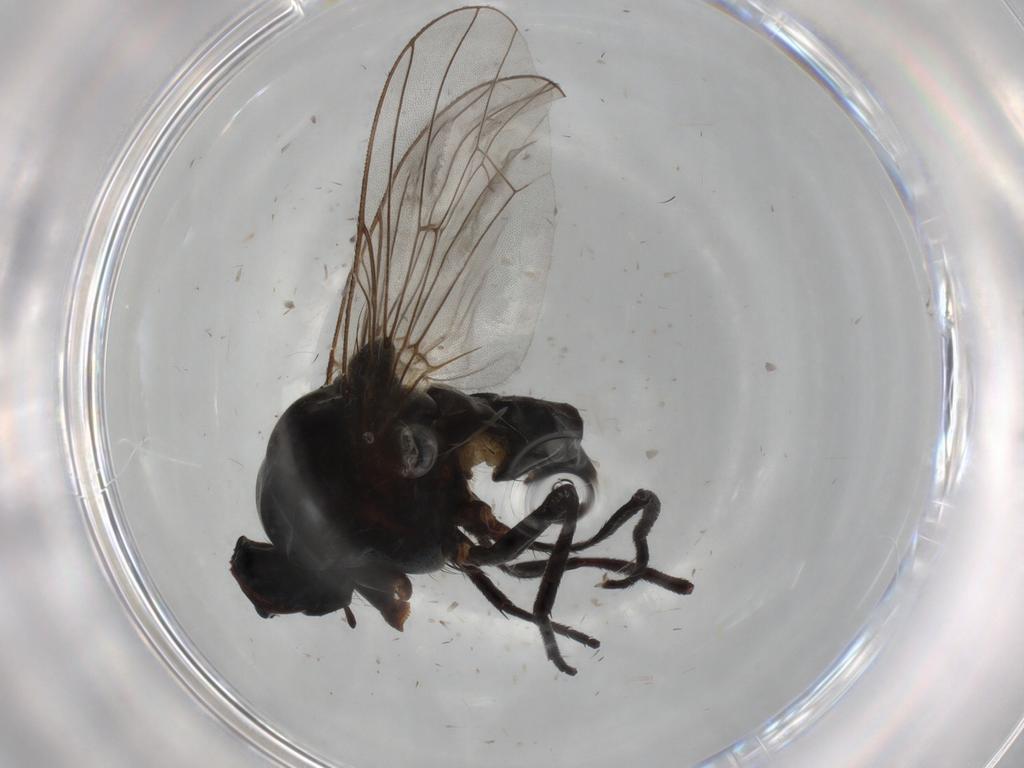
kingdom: Animalia
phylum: Arthropoda
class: Insecta
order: Diptera
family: Anthomyiidae
